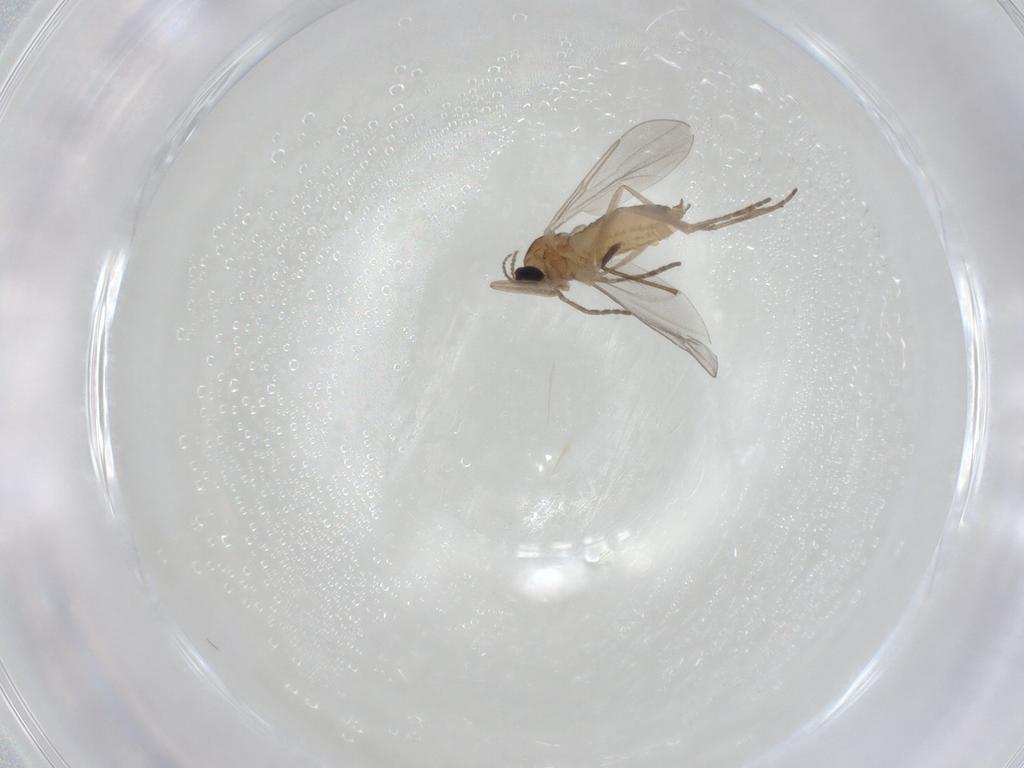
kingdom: Animalia
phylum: Arthropoda
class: Insecta
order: Diptera
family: Cecidomyiidae
